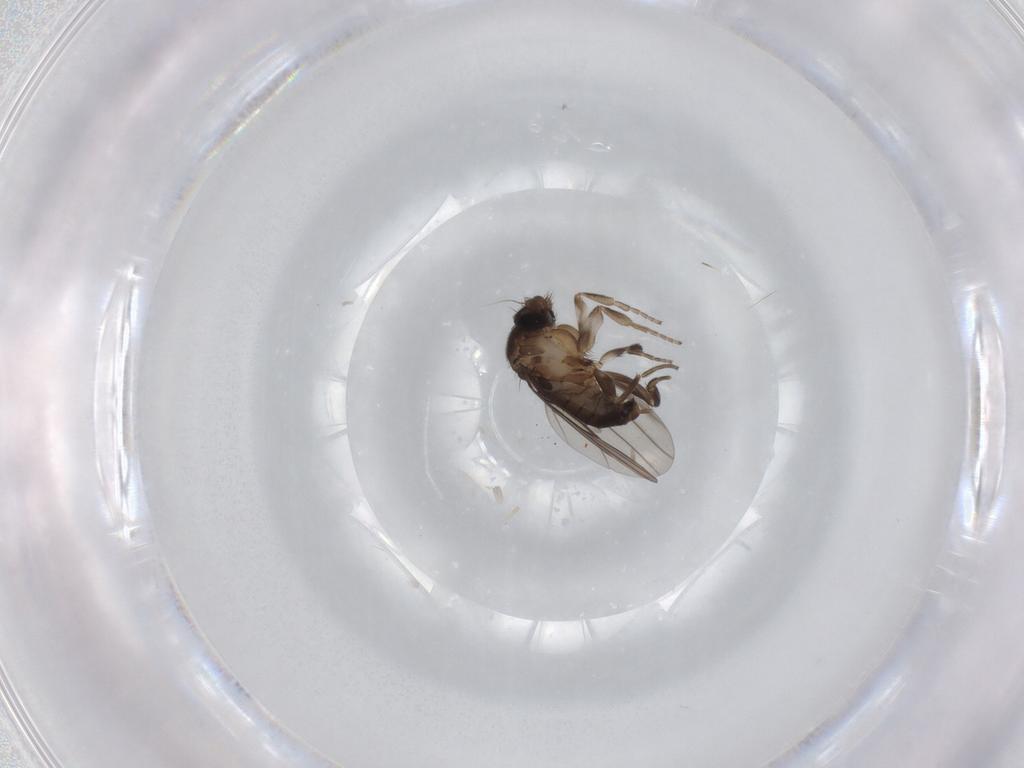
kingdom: Animalia
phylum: Arthropoda
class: Insecta
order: Diptera
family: Phoridae
